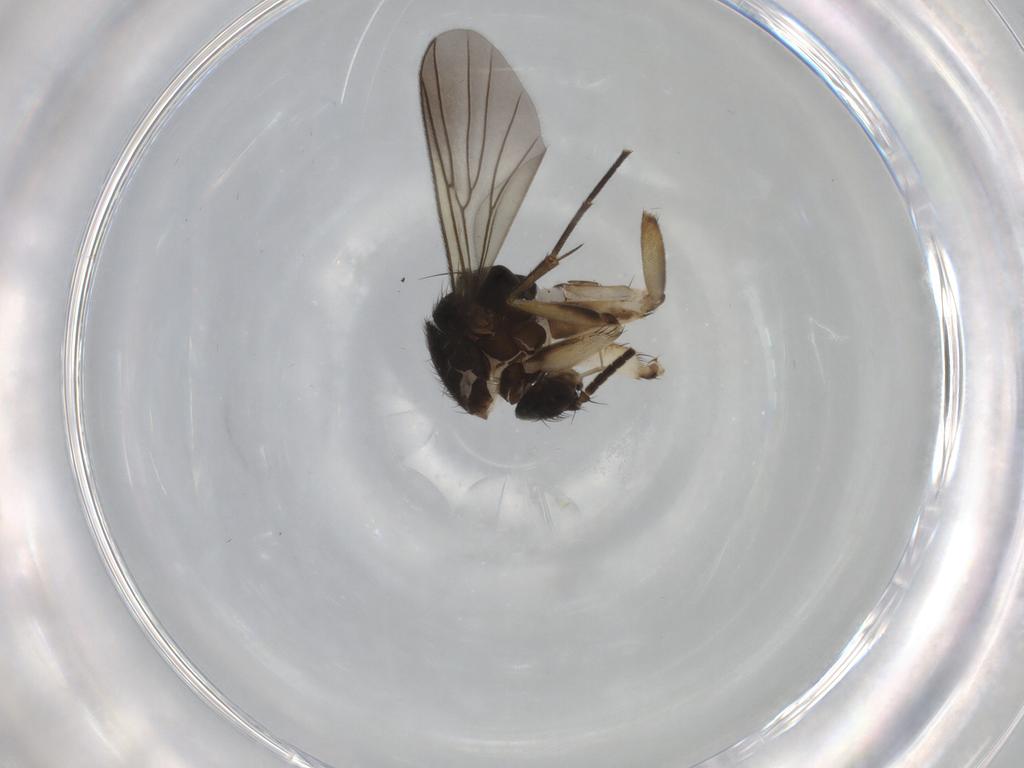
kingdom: Animalia
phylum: Arthropoda
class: Insecta
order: Diptera
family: Mycetophilidae
